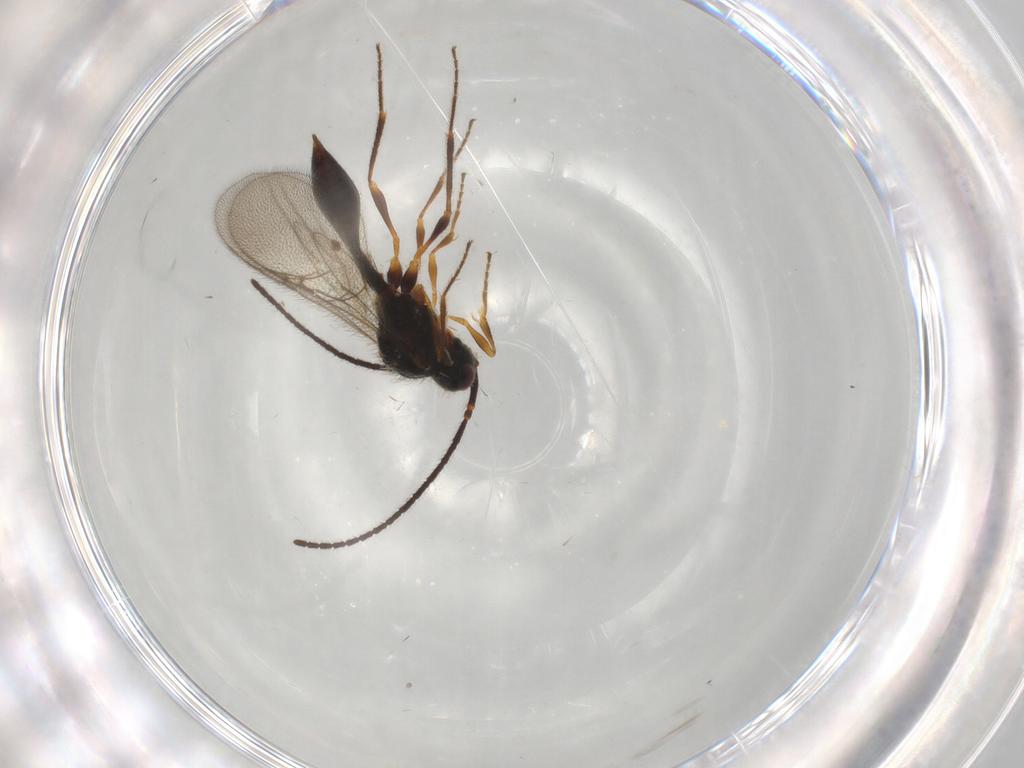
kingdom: Animalia
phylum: Arthropoda
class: Insecta
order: Hymenoptera
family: Diapriidae
